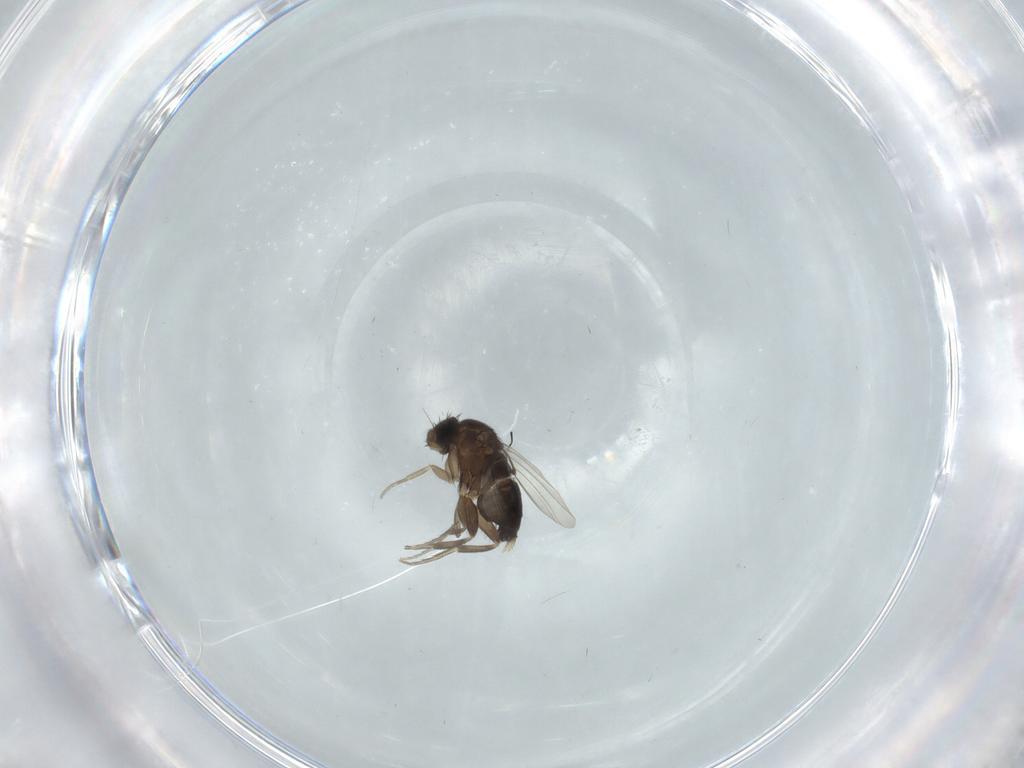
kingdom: Animalia
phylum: Arthropoda
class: Insecta
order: Diptera
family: Phoridae
